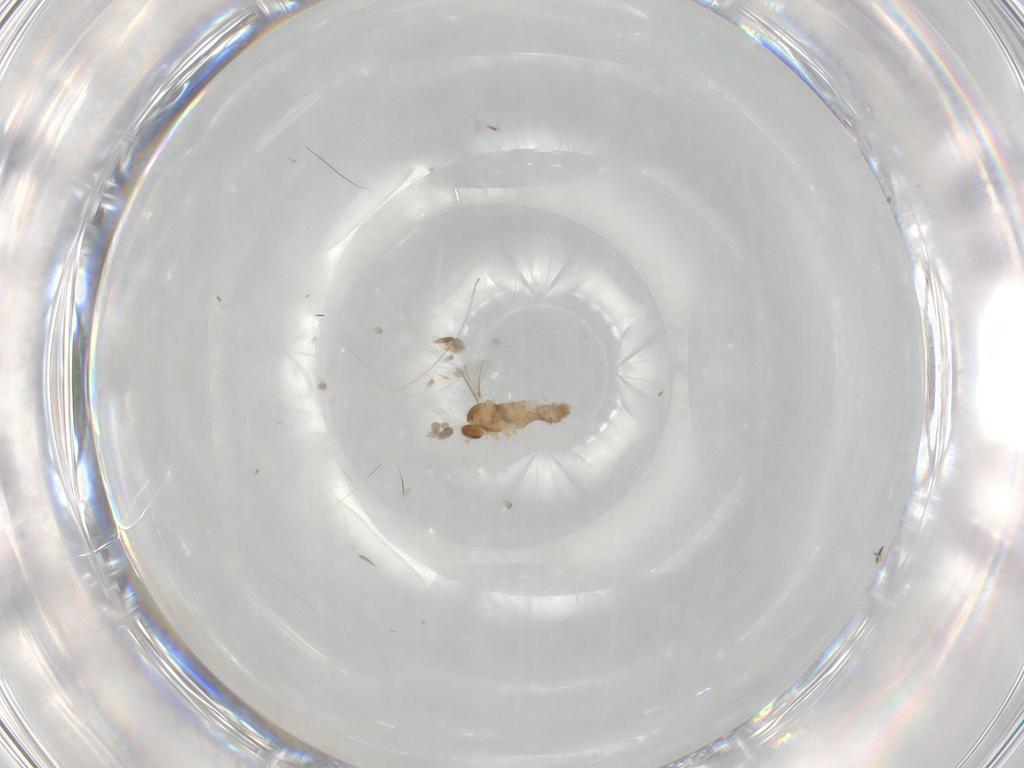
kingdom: Animalia
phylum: Arthropoda
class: Insecta
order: Diptera
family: Cecidomyiidae
